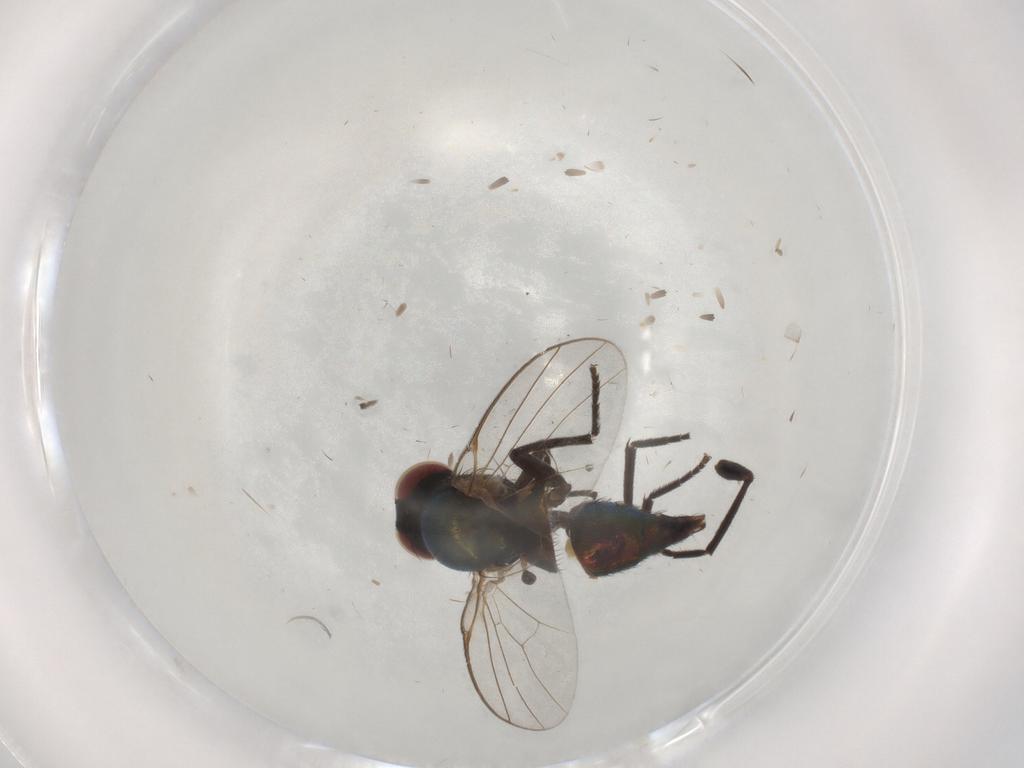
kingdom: Animalia
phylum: Arthropoda
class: Insecta
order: Diptera
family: Agromyzidae
